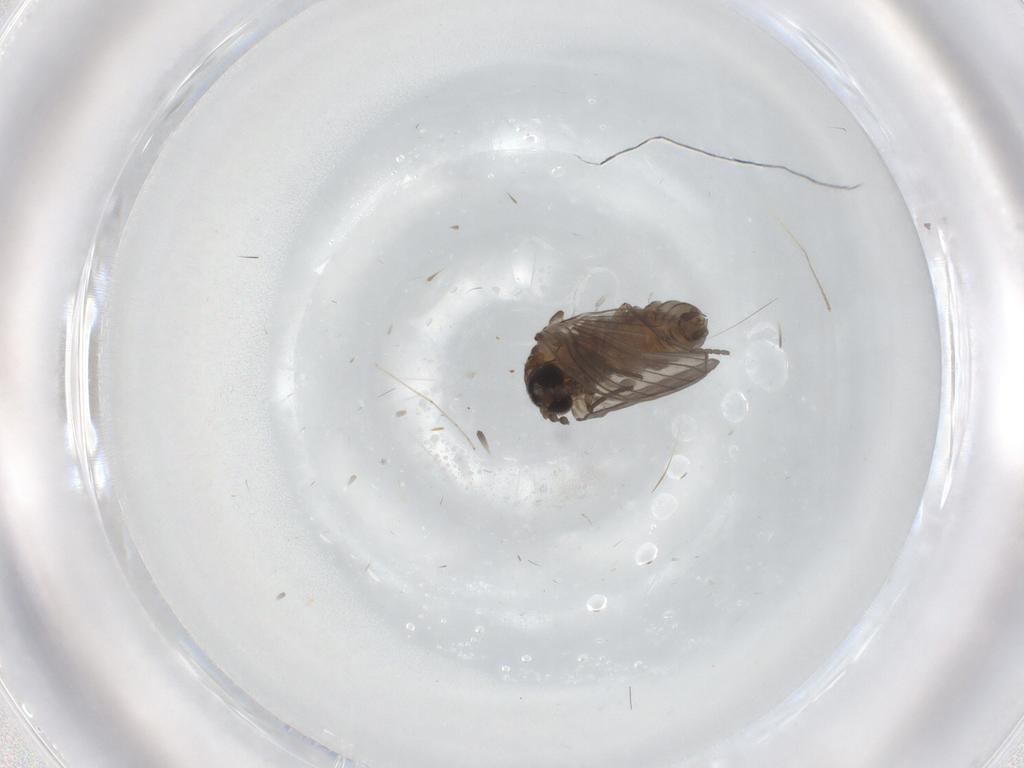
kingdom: Animalia
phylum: Arthropoda
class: Insecta
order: Diptera
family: Psychodidae
